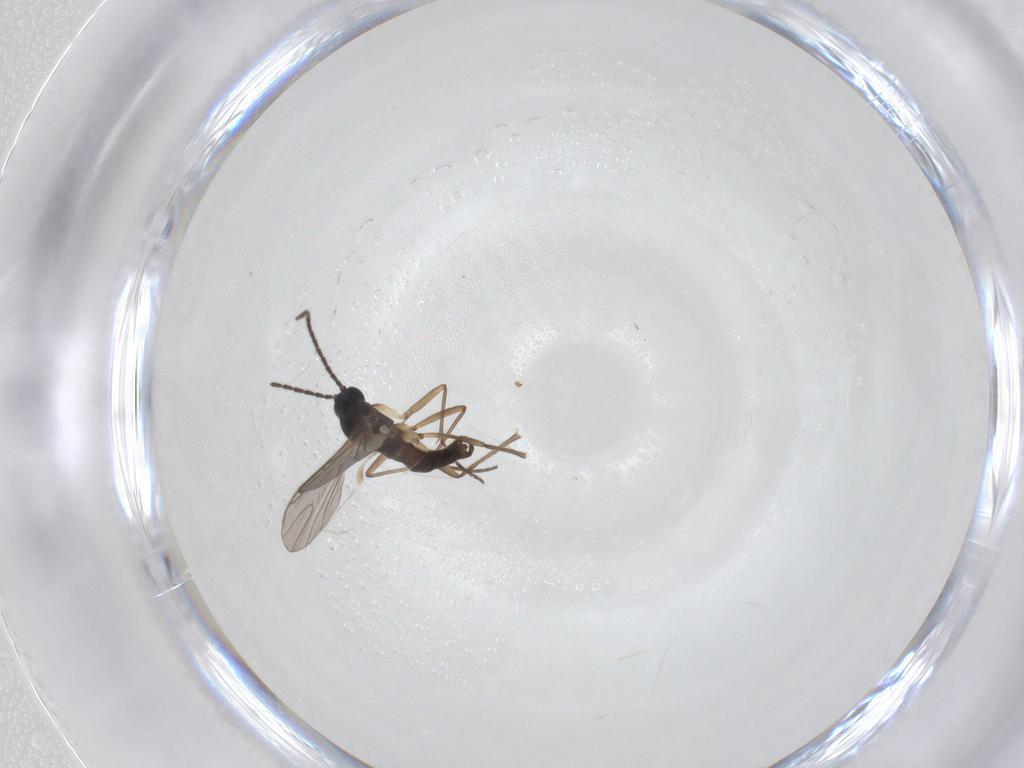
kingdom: Animalia
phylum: Arthropoda
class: Insecta
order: Diptera
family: Sciaridae
